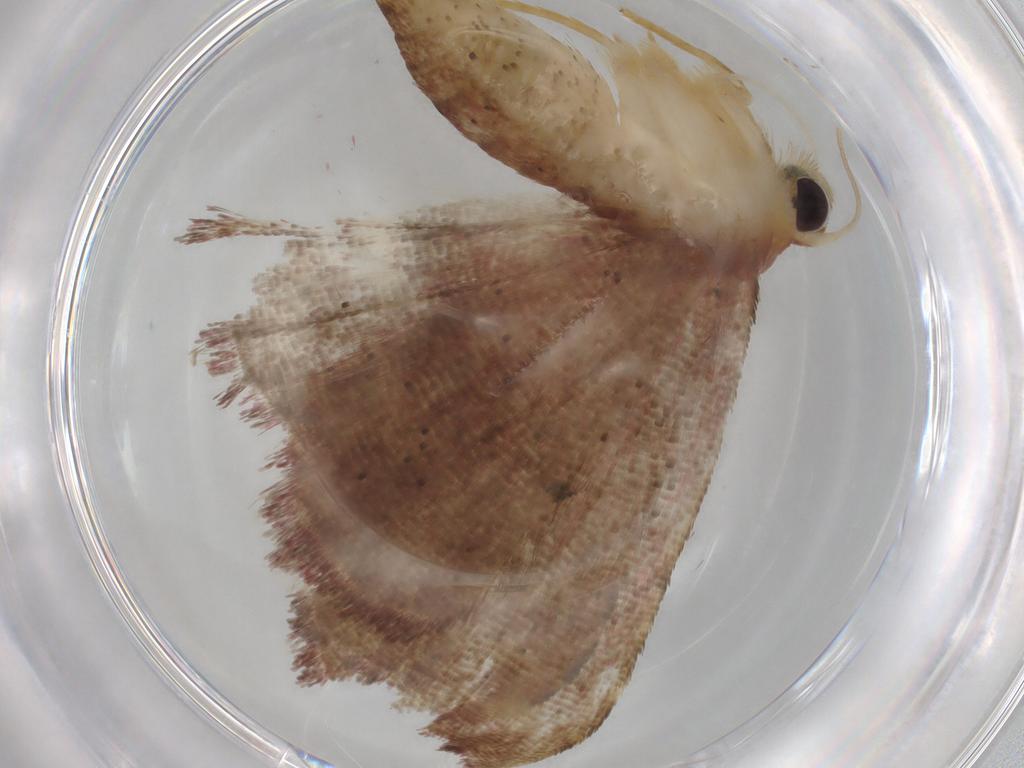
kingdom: Animalia
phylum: Arthropoda
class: Insecta
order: Lepidoptera
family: Erebidae
